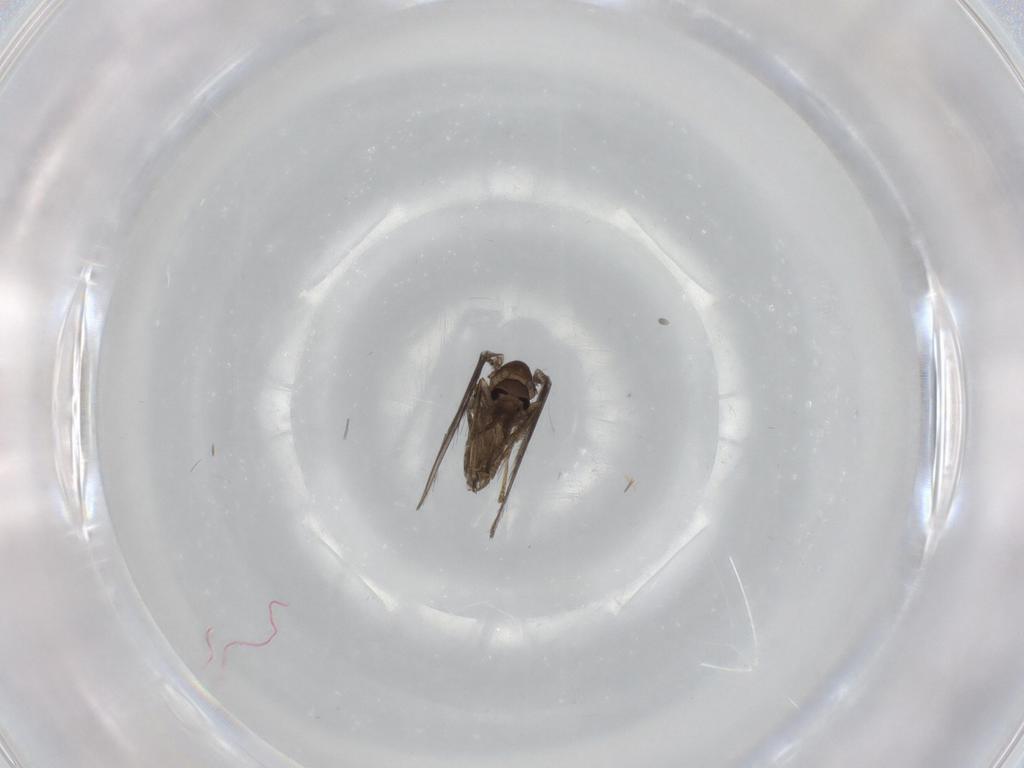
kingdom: Animalia
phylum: Arthropoda
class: Insecta
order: Diptera
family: Psychodidae
